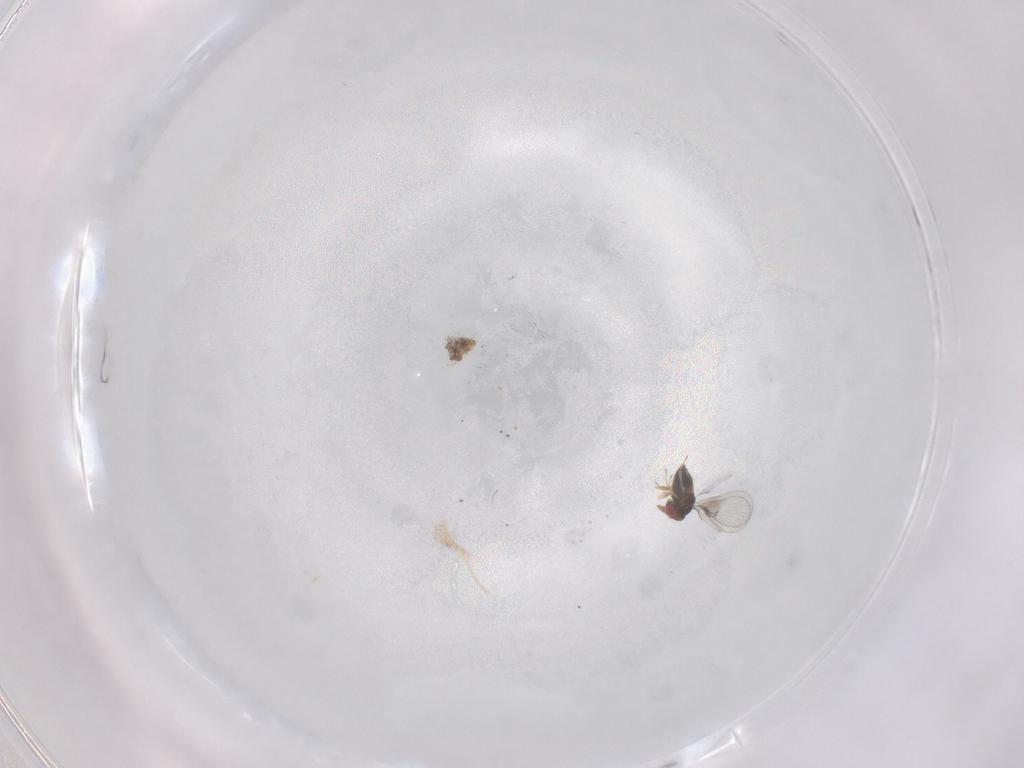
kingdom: Animalia
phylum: Arthropoda
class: Insecta
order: Hymenoptera
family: Trichogrammatidae
